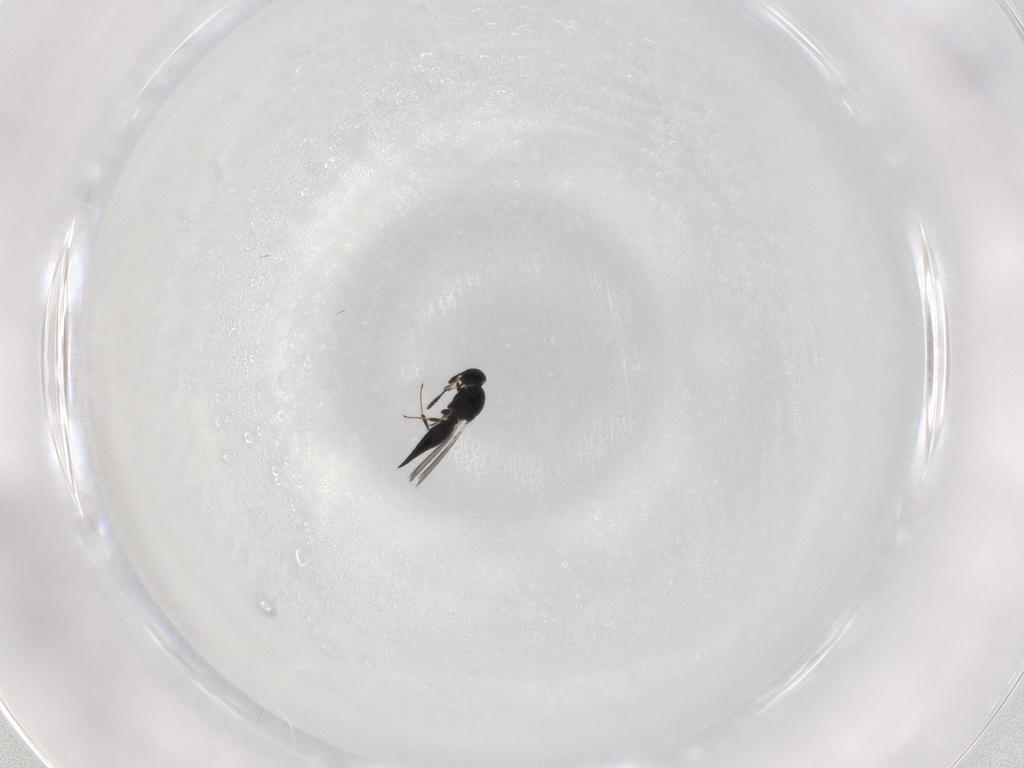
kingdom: Animalia
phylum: Arthropoda
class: Insecta
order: Hymenoptera
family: Platygastridae
